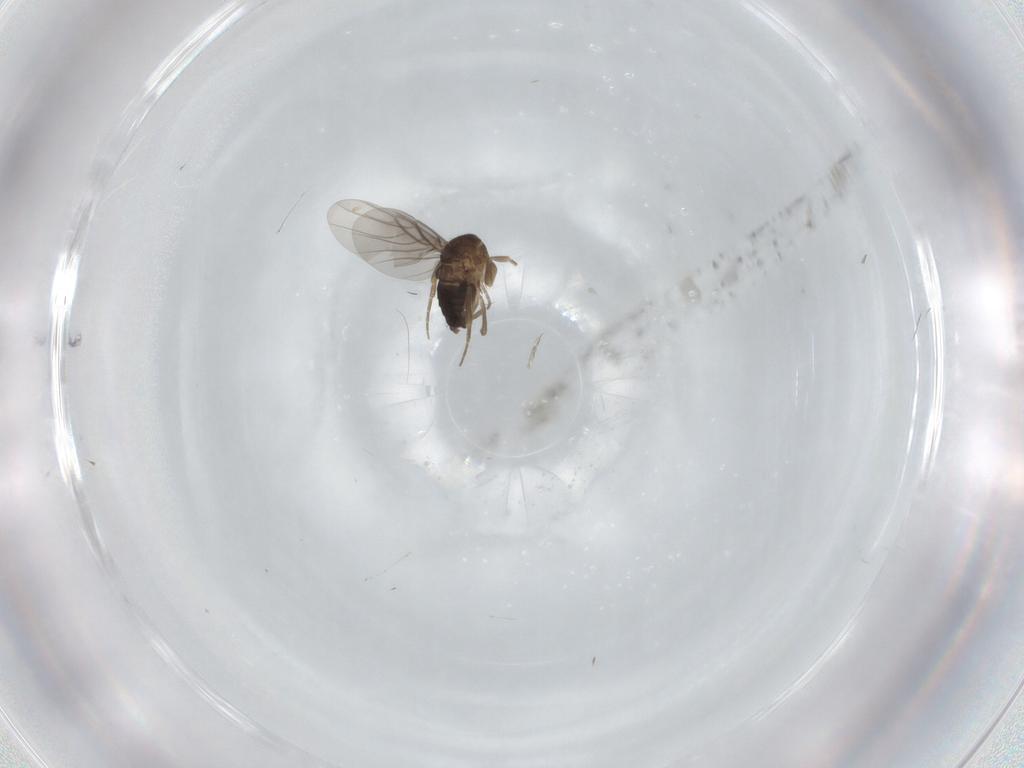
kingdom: Animalia
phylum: Arthropoda
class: Insecta
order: Diptera
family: Phoridae
